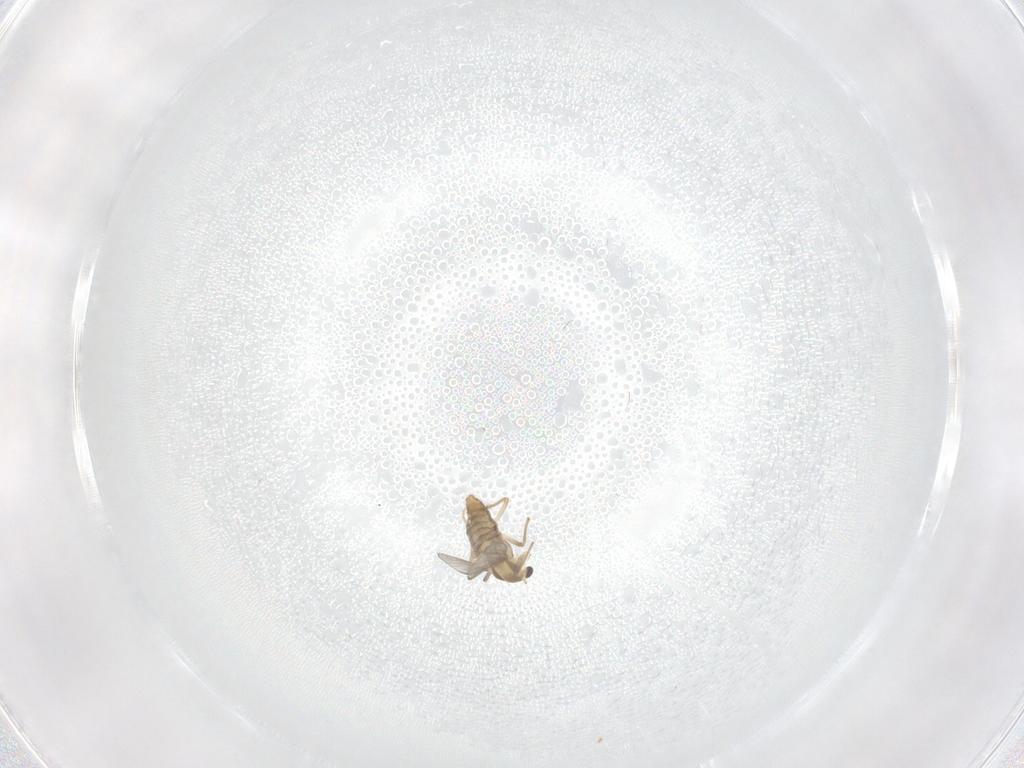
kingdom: Animalia
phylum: Arthropoda
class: Insecta
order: Diptera
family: Chironomidae
